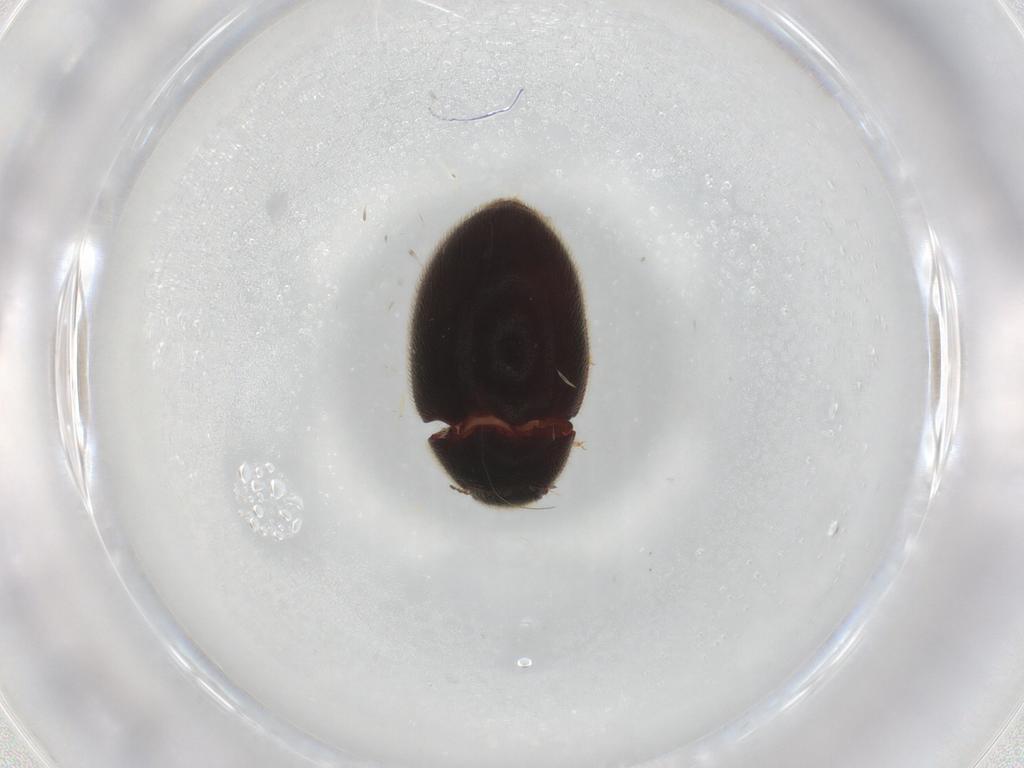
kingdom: Animalia
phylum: Arthropoda
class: Insecta
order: Coleoptera
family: Limnichidae
